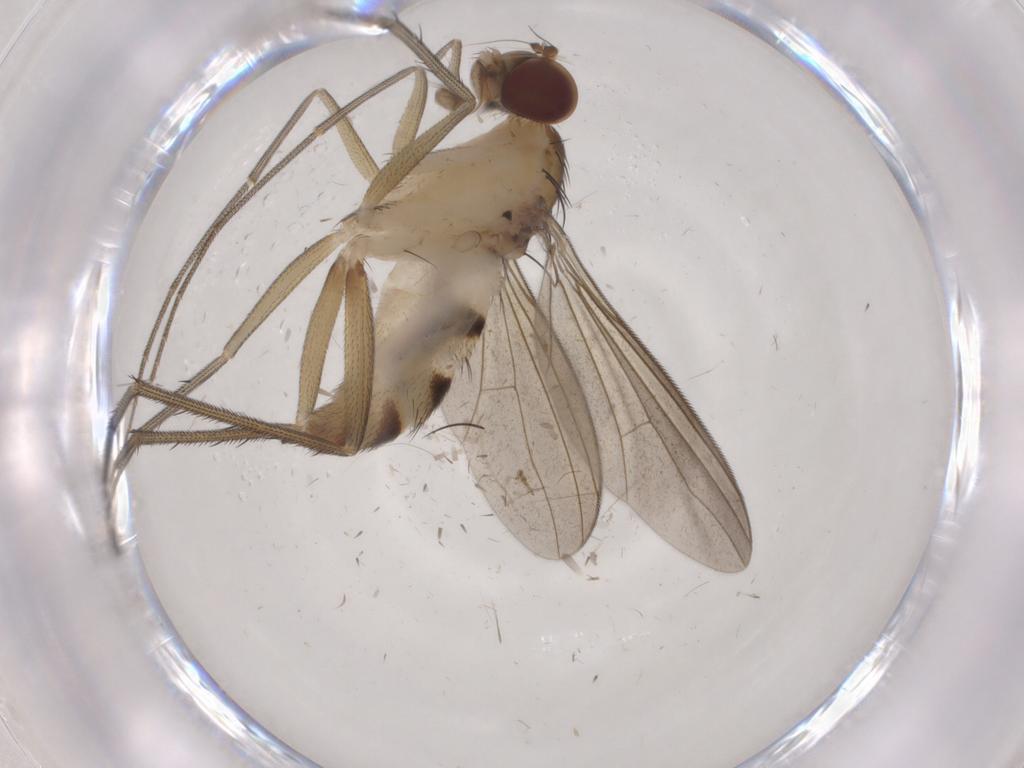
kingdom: Animalia
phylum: Arthropoda
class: Insecta
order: Diptera
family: Dolichopodidae
